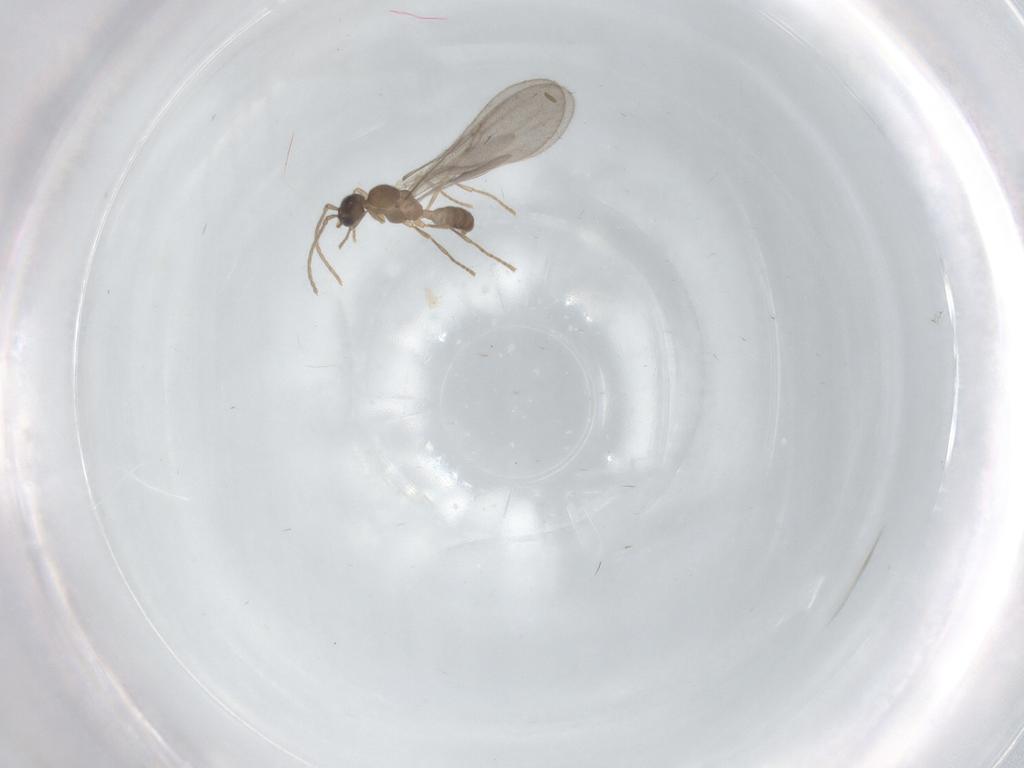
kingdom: Animalia
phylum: Arthropoda
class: Insecta
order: Hymenoptera
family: Formicidae
